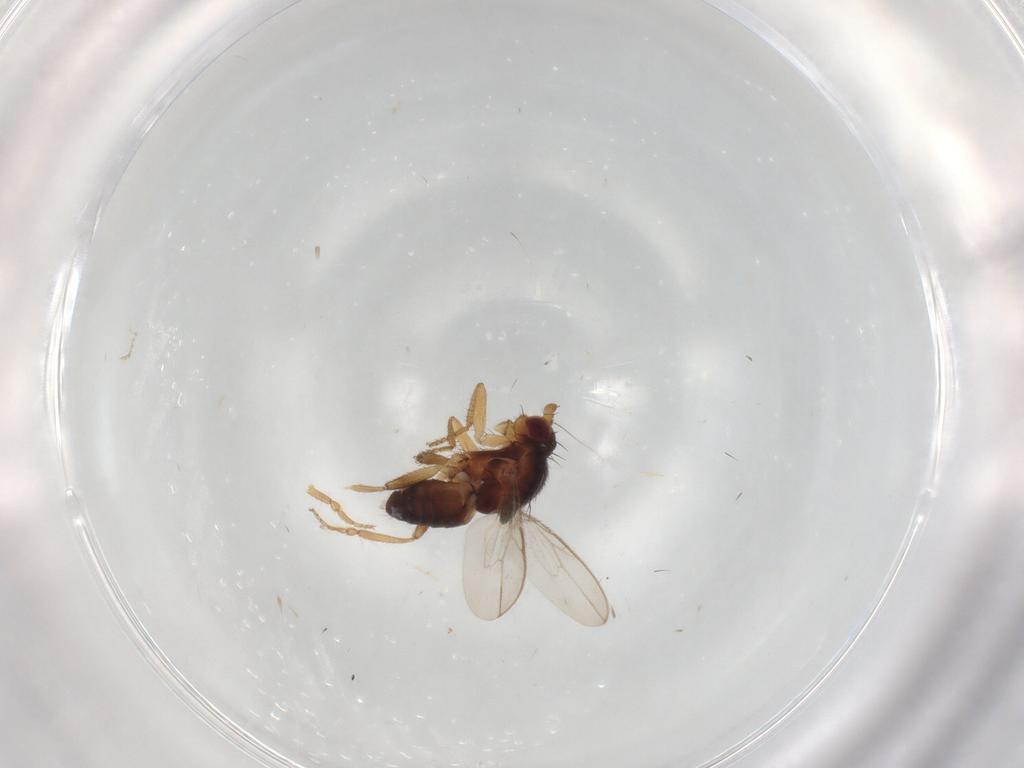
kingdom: Animalia
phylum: Arthropoda
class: Insecta
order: Diptera
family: Sphaeroceridae
